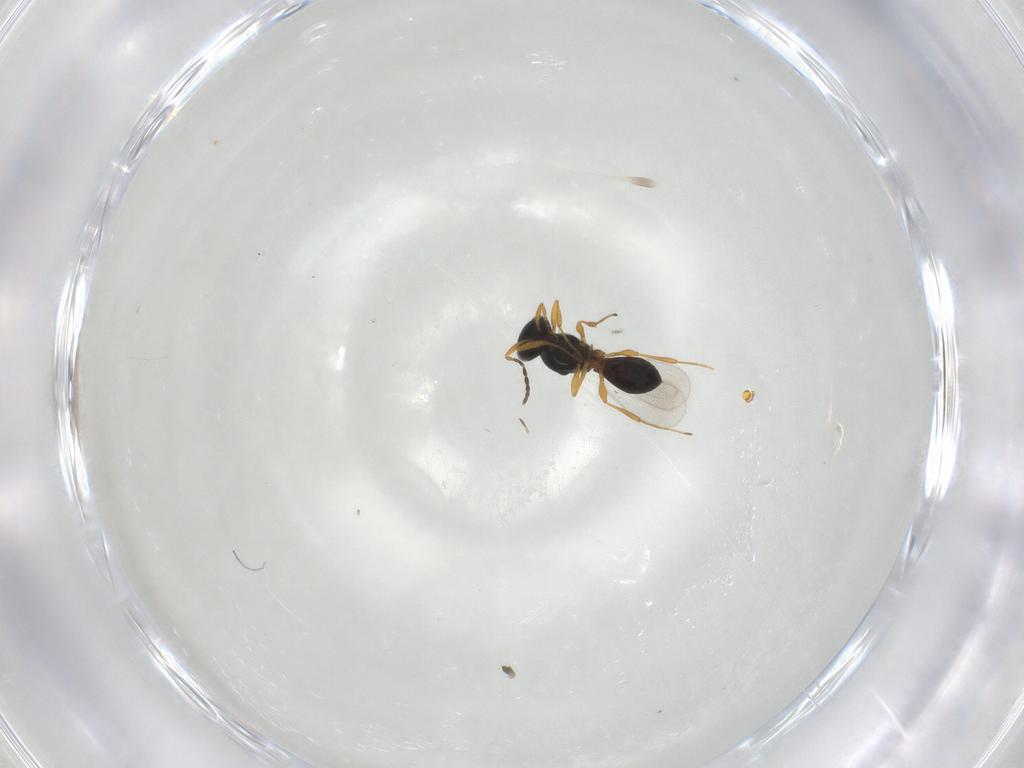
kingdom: Animalia
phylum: Arthropoda
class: Insecta
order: Hymenoptera
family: Platygastridae
